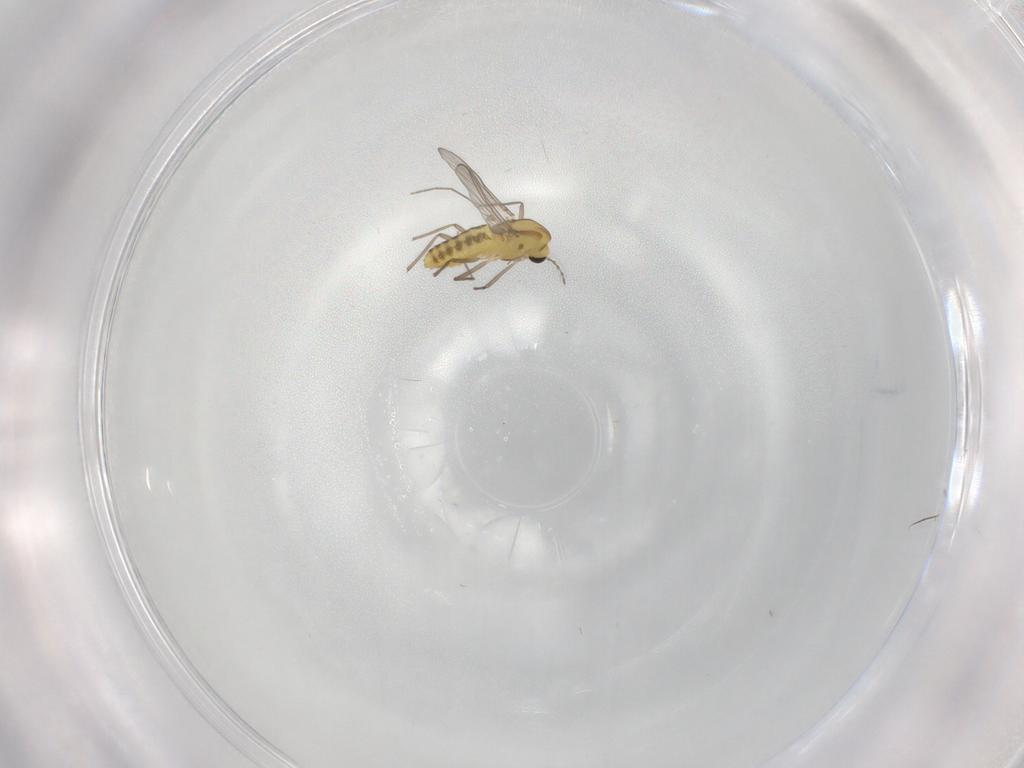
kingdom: Animalia
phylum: Arthropoda
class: Insecta
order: Diptera
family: Chironomidae
